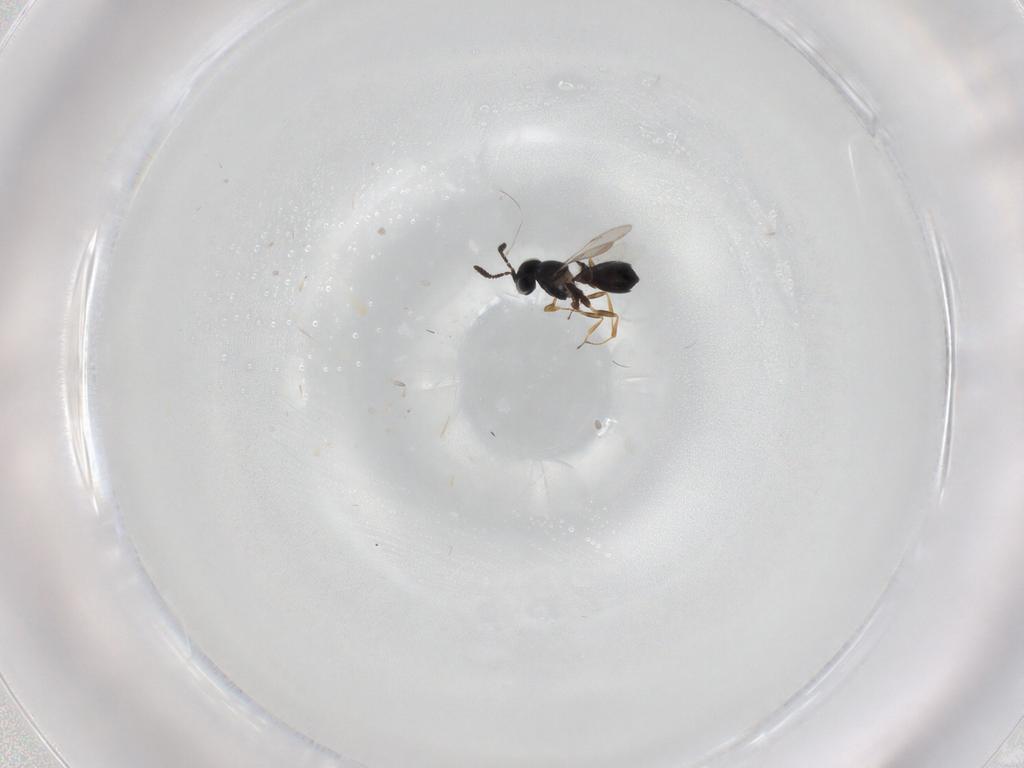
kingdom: Animalia
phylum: Arthropoda
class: Insecta
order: Hymenoptera
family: Scelionidae
